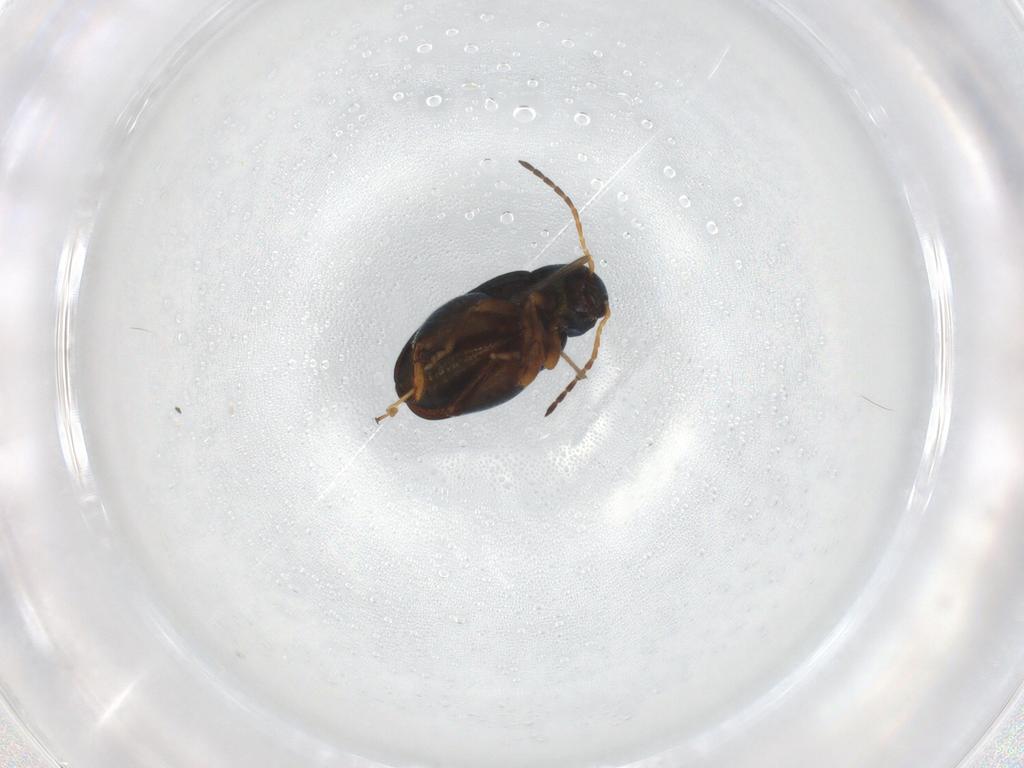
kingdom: Animalia
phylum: Arthropoda
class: Insecta
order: Coleoptera
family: Chrysomelidae
